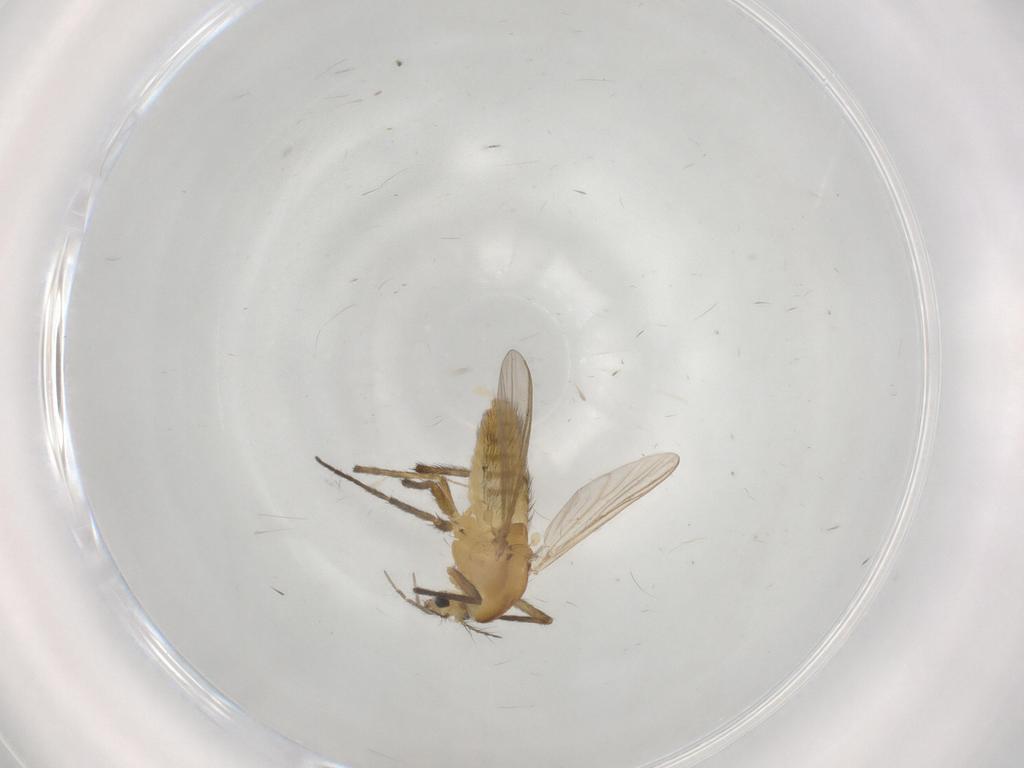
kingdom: Animalia
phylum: Arthropoda
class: Insecta
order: Diptera
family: Chironomidae
